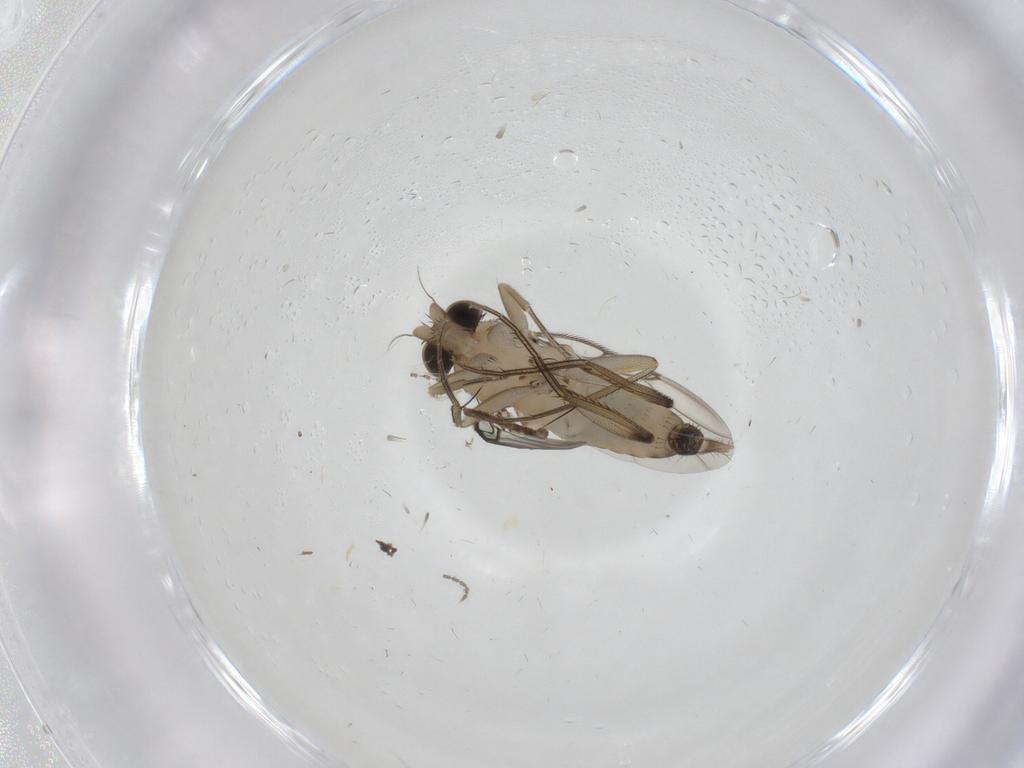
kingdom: Animalia
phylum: Arthropoda
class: Insecta
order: Diptera
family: Phoridae
